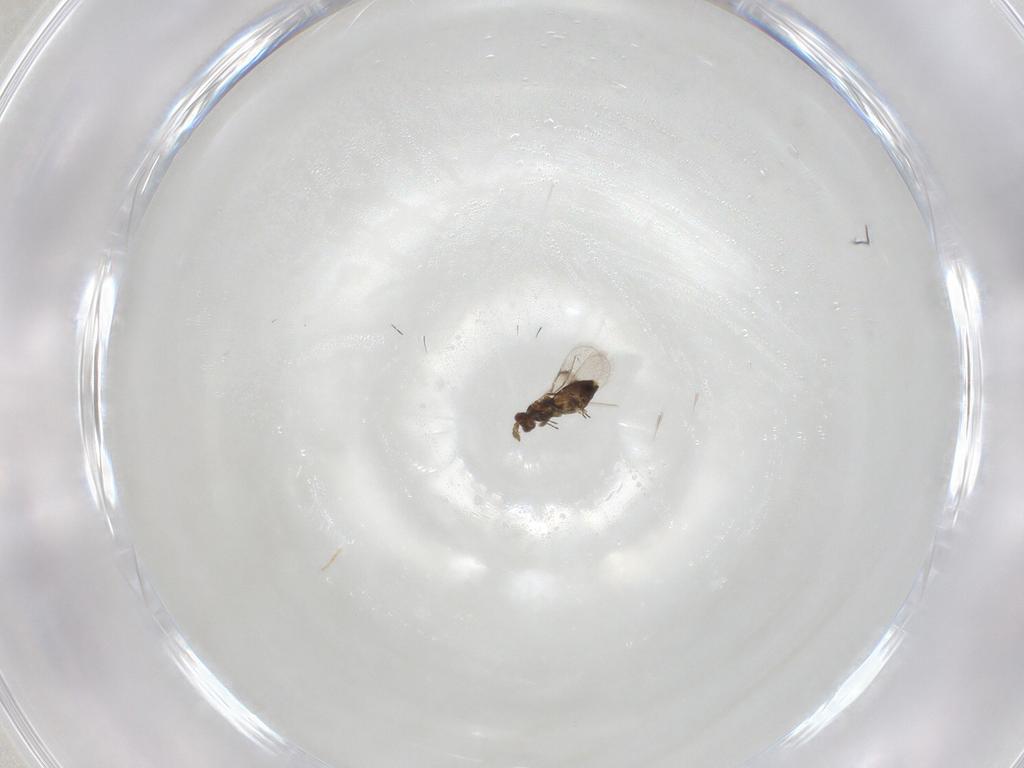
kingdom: Animalia
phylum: Arthropoda
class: Insecta
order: Hymenoptera
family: Trichogrammatidae
